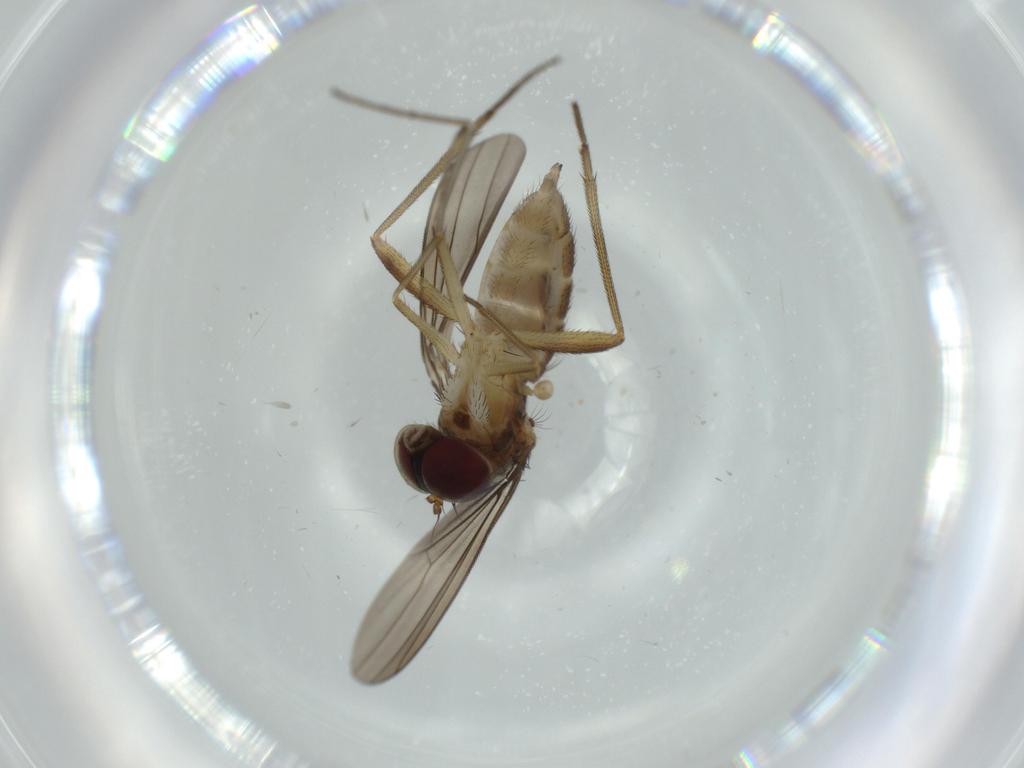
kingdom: Animalia
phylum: Arthropoda
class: Insecta
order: Diptera
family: Dolichopodidae
